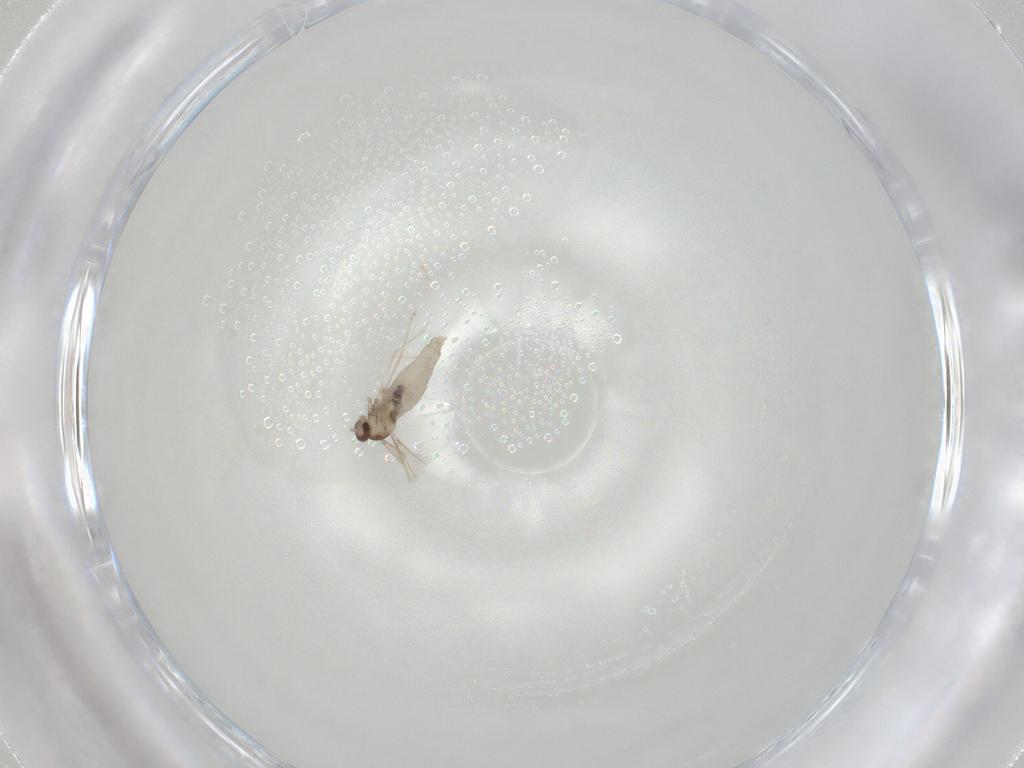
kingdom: Animalia
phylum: Arthropoda
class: Insecta
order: Diptera
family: Cecidomyiidae
